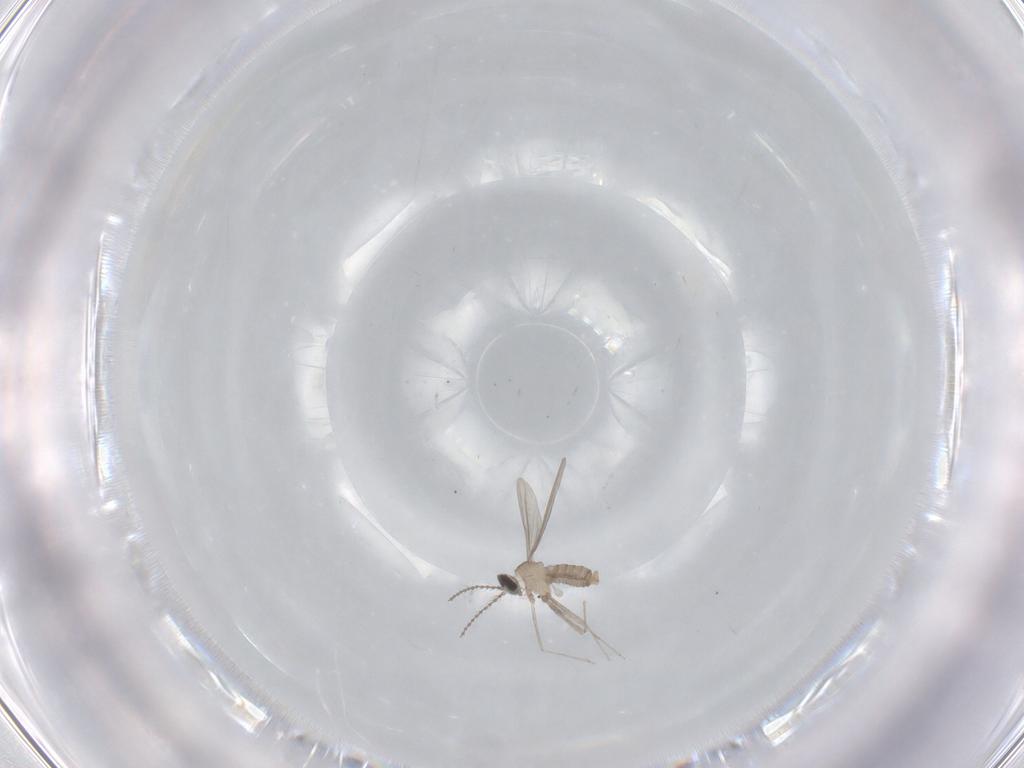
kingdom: Animalia
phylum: Arthropoda
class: Insecta
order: Diptera
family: Cecidomyiidae
